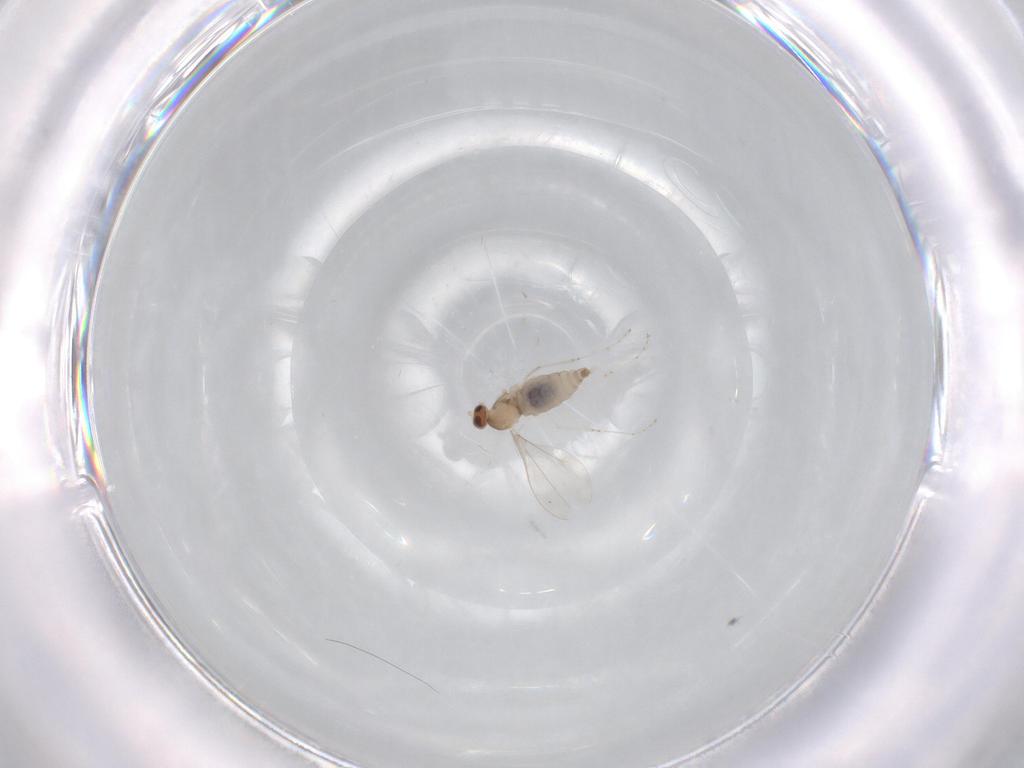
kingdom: Animalia
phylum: Arthropoda
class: Insecta
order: Diptera
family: Cecidomyiidae
